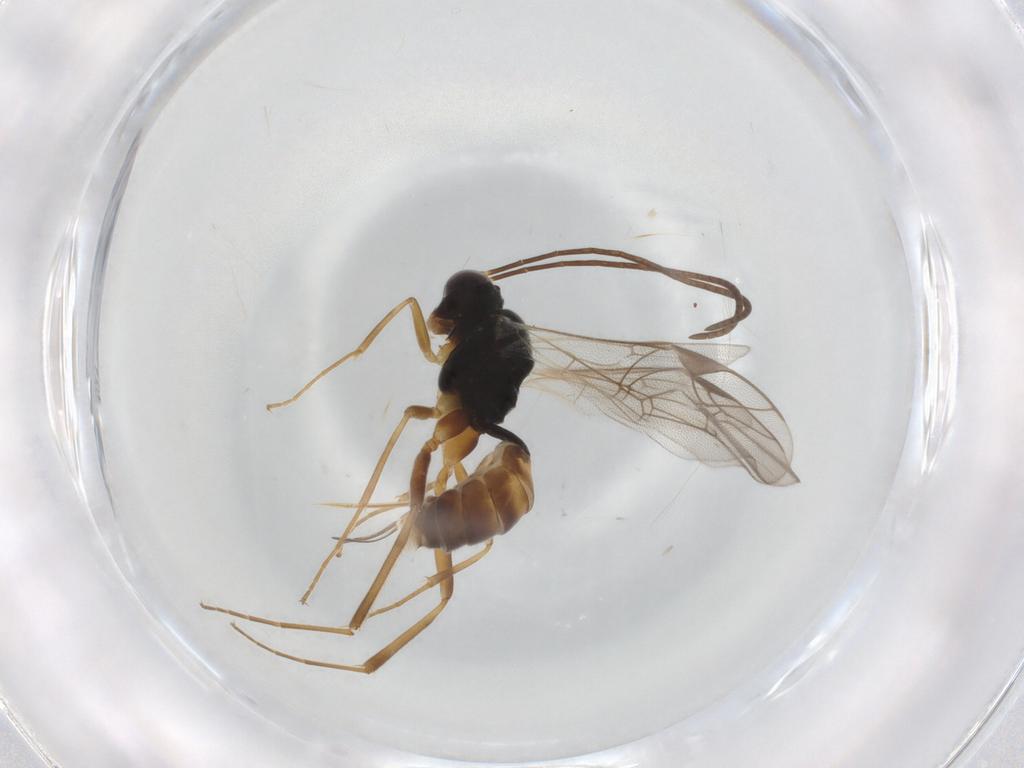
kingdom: Animalia
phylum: Arthropoda
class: Insecta
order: Hymenoptera
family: Ichneumonidae
